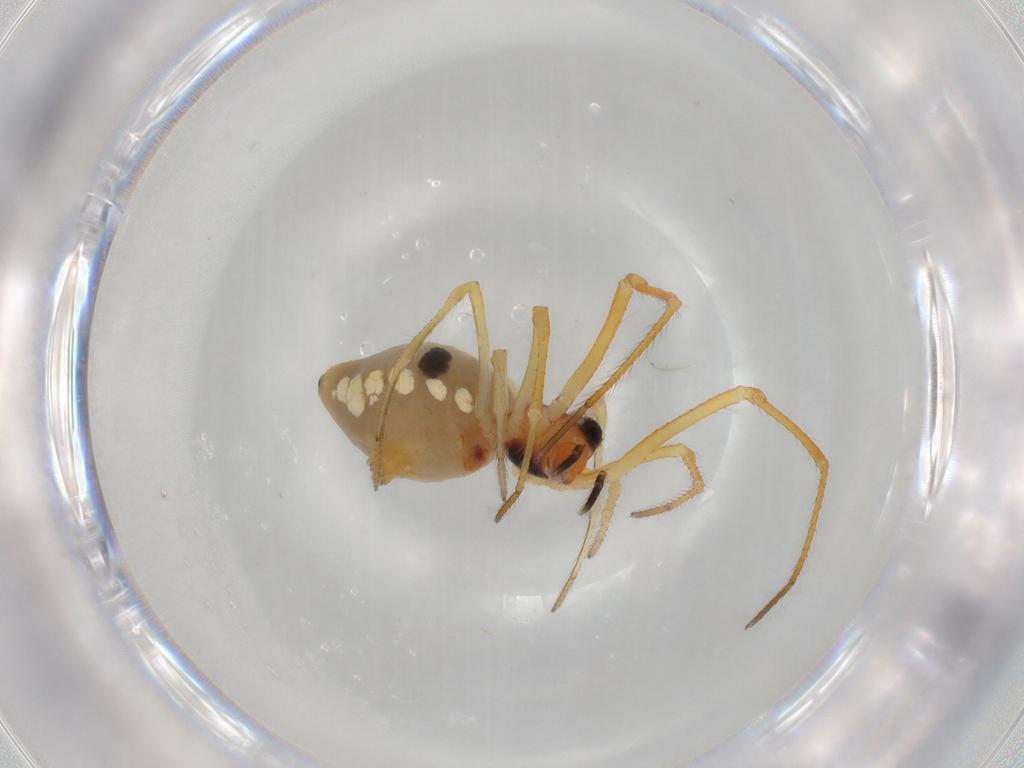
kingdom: Animalia
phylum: Arthropoda
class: Arachnida
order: Araneae
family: Theridiidae
